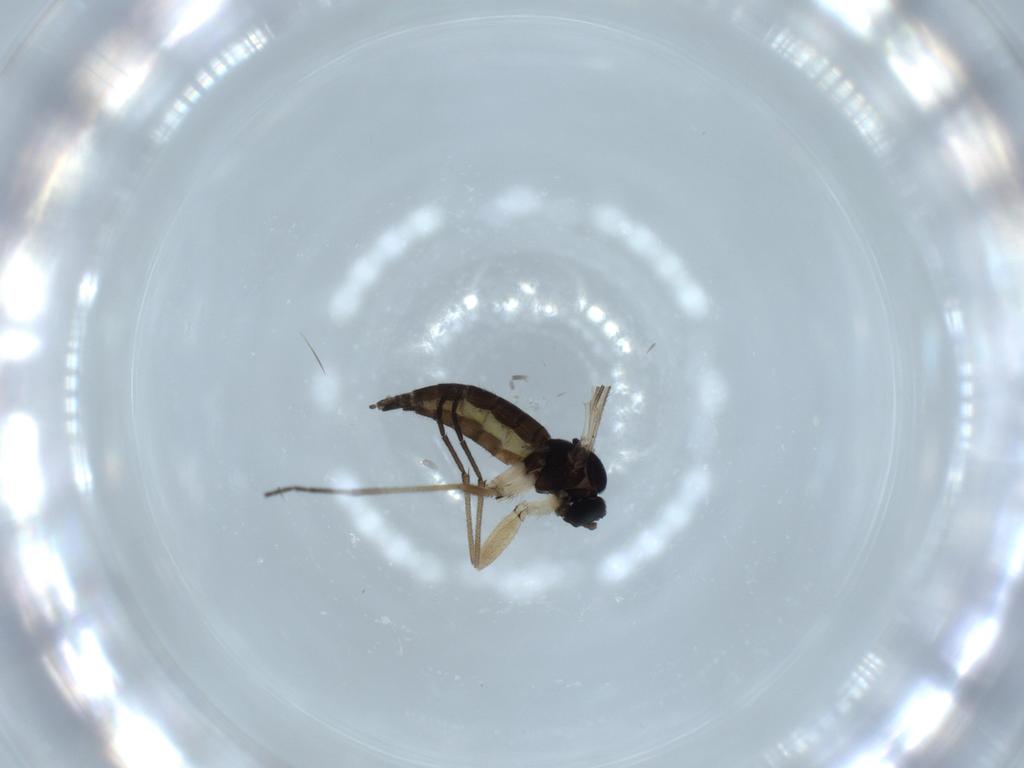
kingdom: Animalia
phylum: Arthropoda
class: Insecta
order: Diptera
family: Sciaridae
